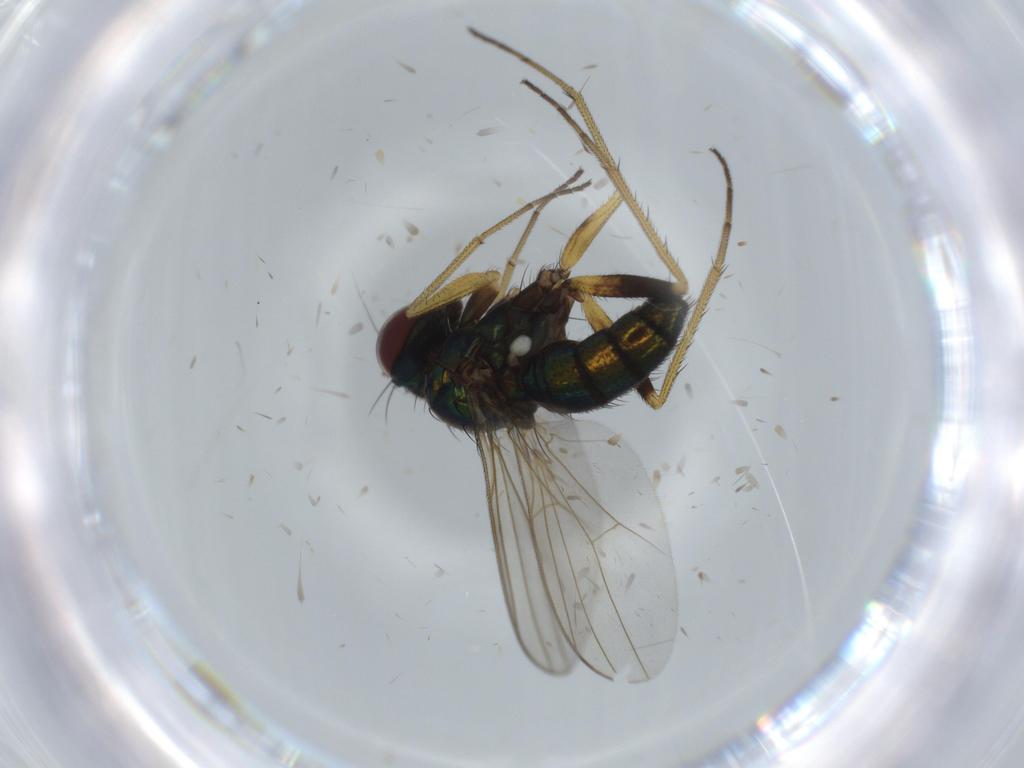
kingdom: Animalia
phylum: Arthropoda
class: Insecta
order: Diptera
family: Dolichopodidae
